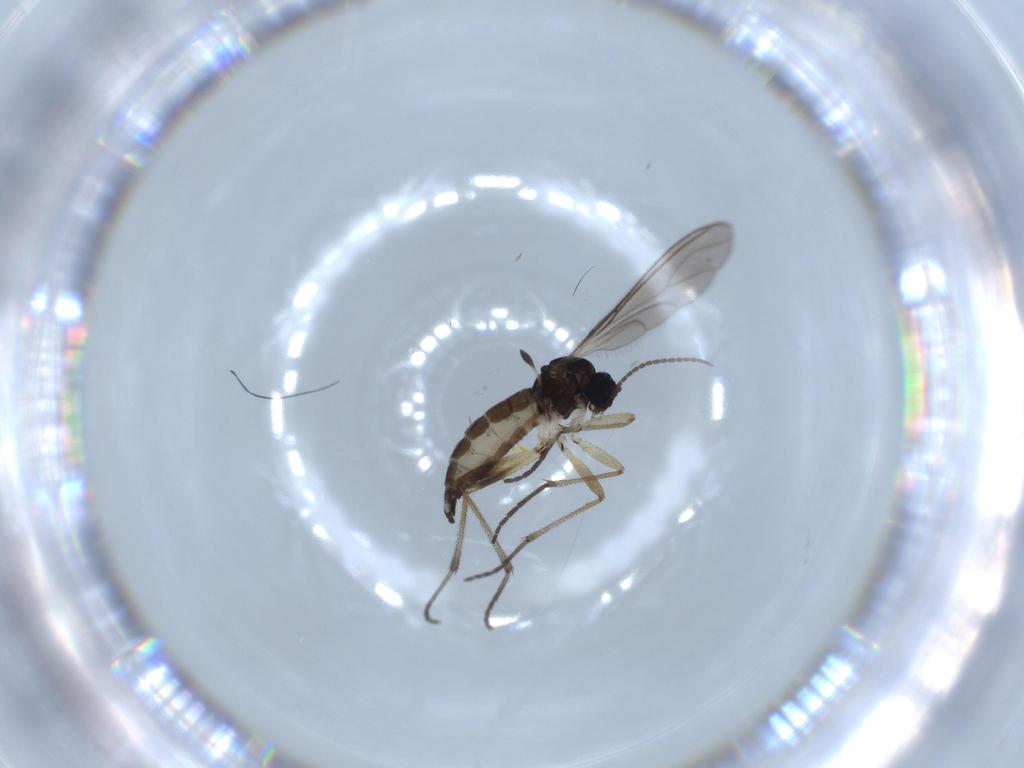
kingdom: Animalia
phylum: Arthropoda
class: Insecta
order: Diptera
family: Sciaridae
